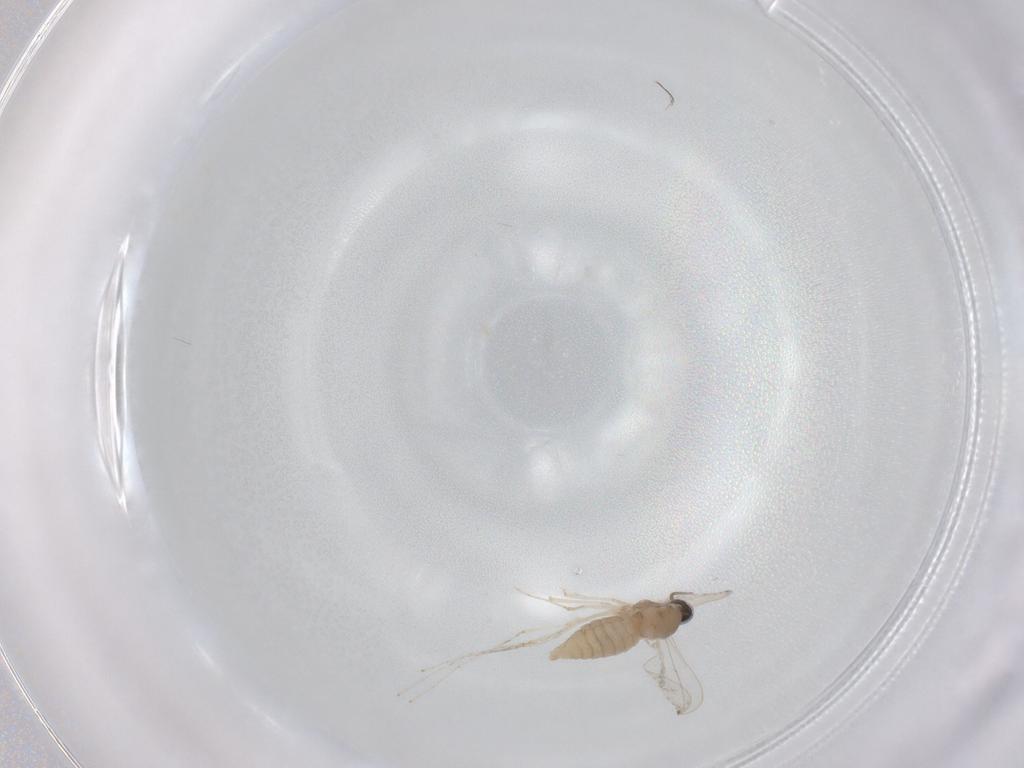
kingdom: Animalia
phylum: Arthropoda
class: Insecta
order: Diptera
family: Cecidomyiidae
